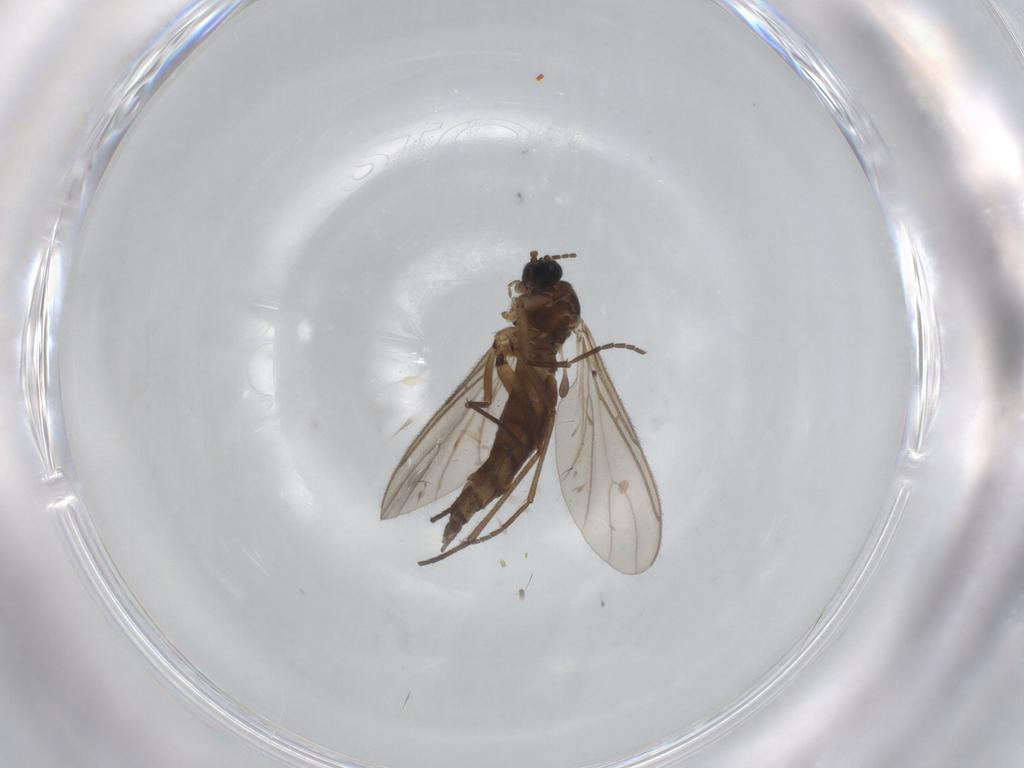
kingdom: Animalia
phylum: Arthropoda
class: Insecta
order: Diptera
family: Sciaridae
